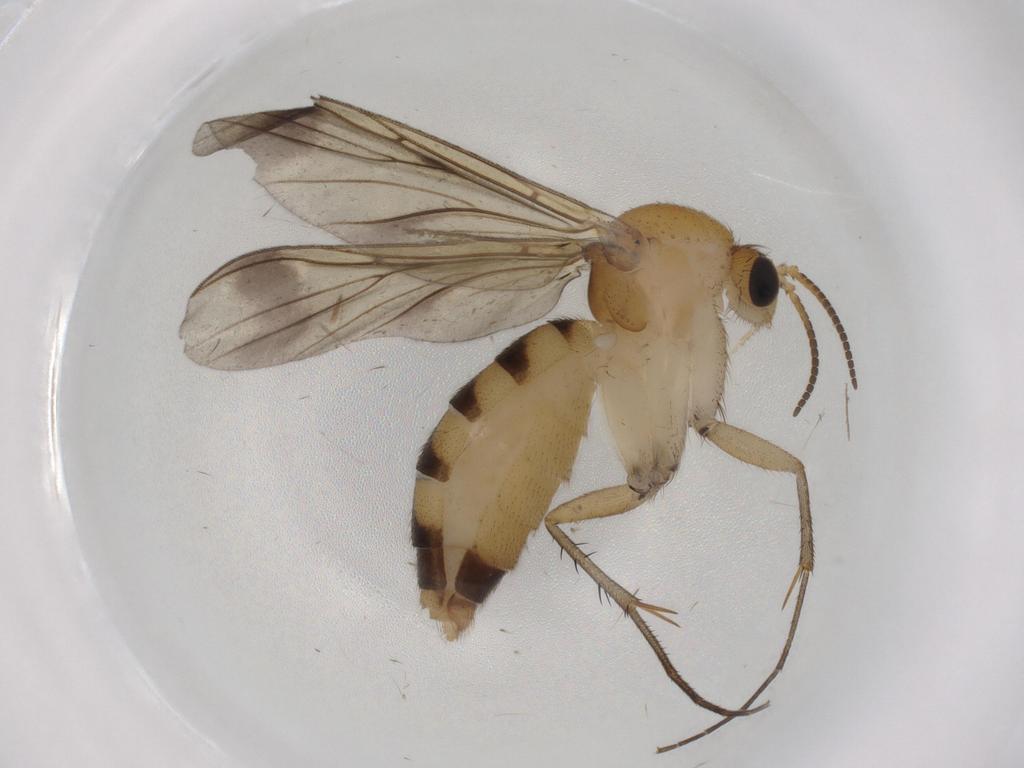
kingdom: Animalia
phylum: Arthropoda
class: Insecta
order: Diptera
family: Mycetophilidae
